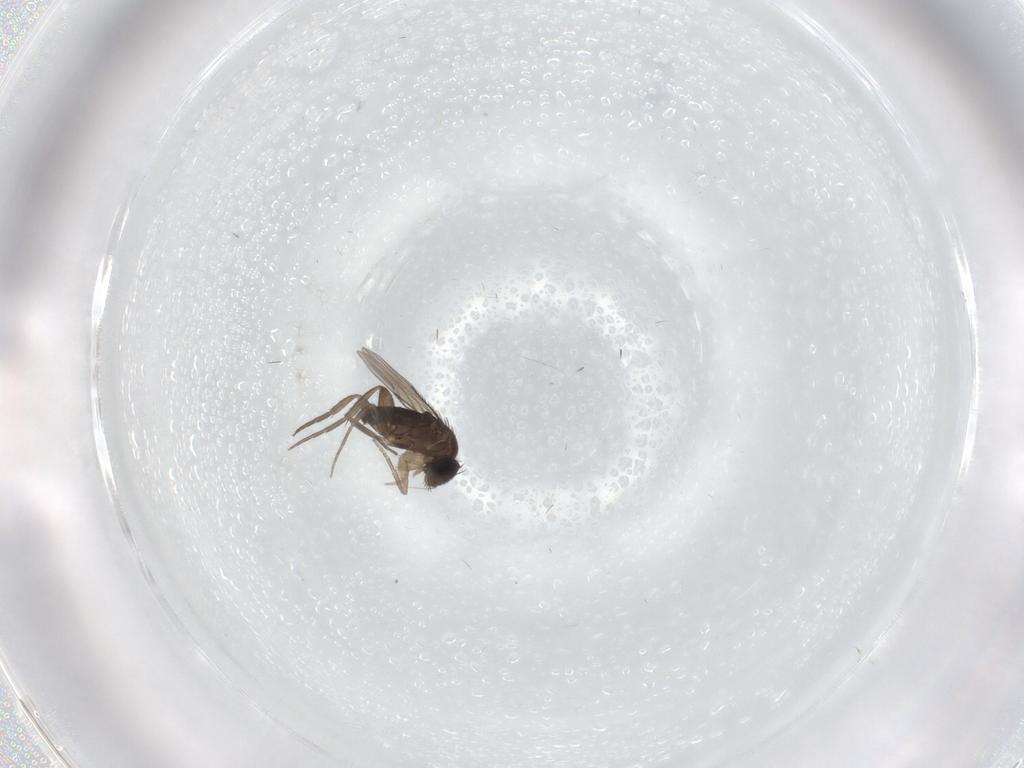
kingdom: Animalia
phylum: Arthropoda
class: Insecta
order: Diptera
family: Phoridae
